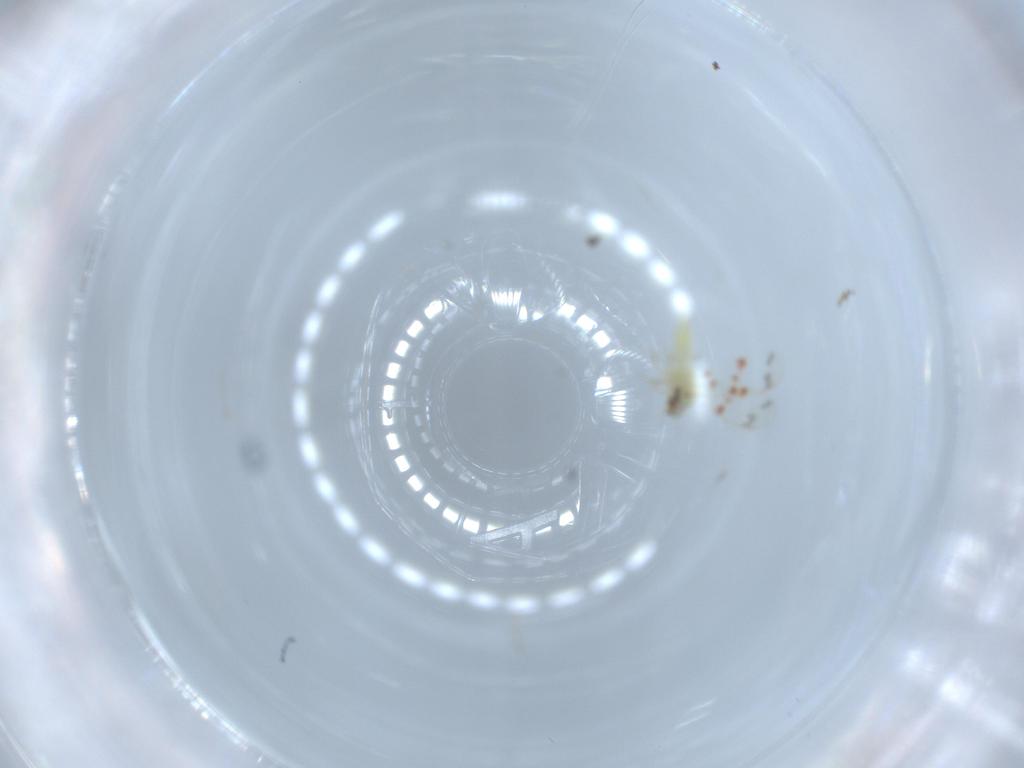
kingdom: Animalia
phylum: Arthropoda
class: Insecta
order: Hemiptera
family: Aleyrodidae
